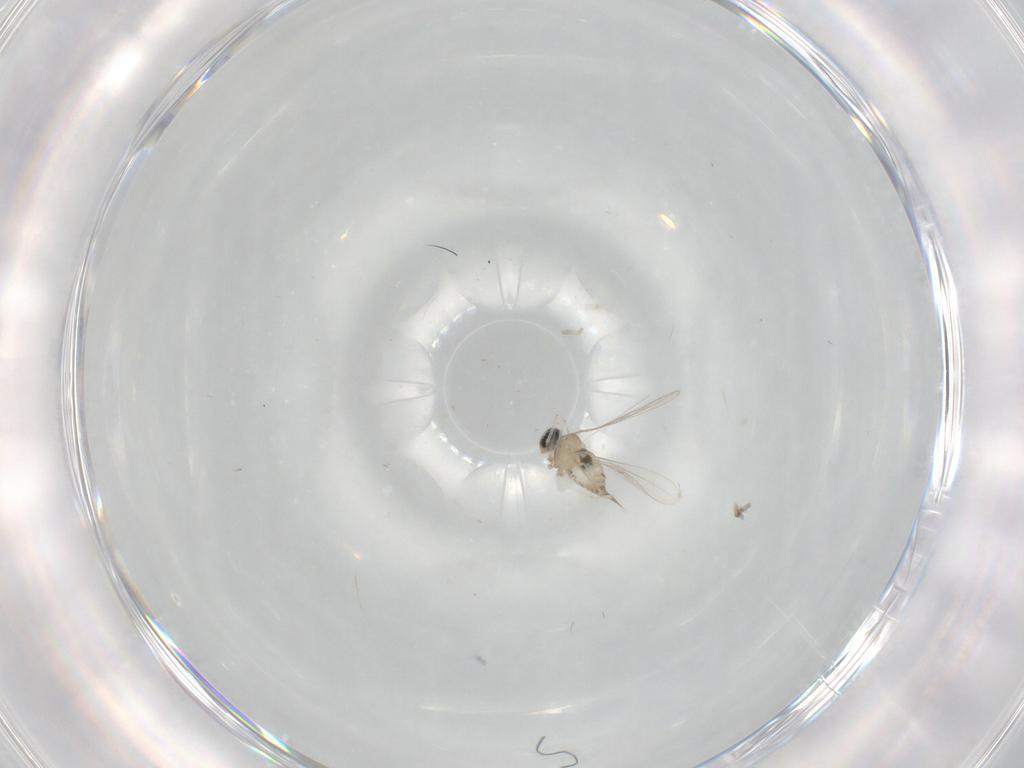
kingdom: Animalia
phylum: Arthropoda
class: Insecta
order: Diptera
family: Cecidomyiidae
